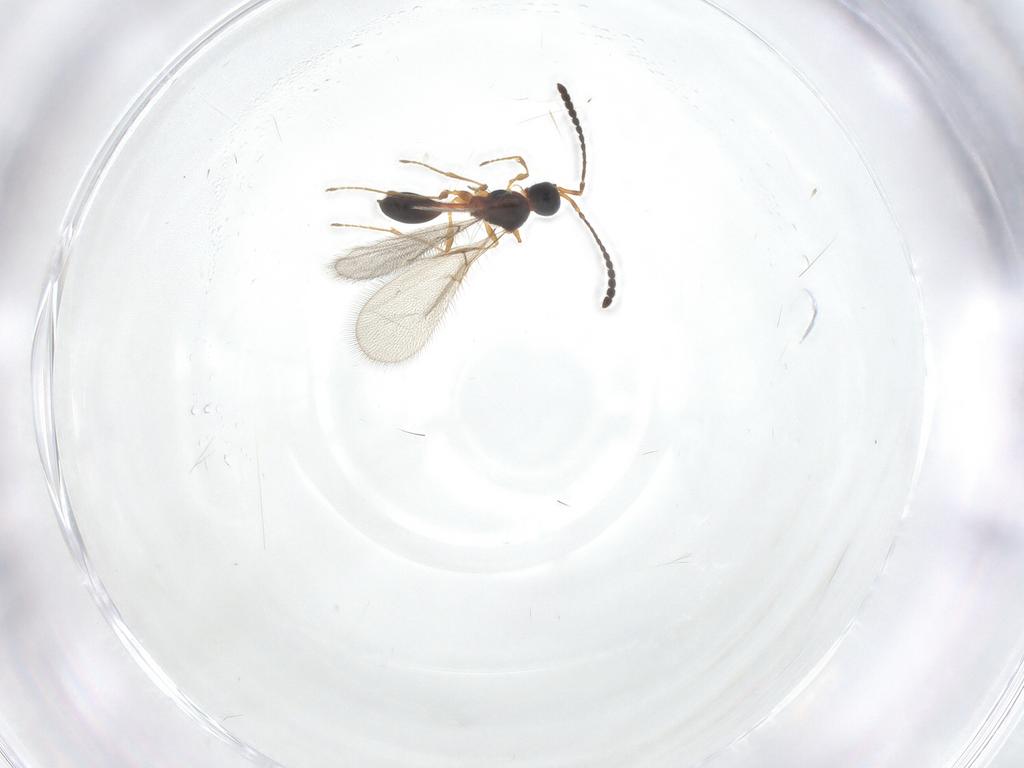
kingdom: Animalia
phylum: Arthropoda
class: Insecta
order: Hymenoptera
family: Diapriidae
